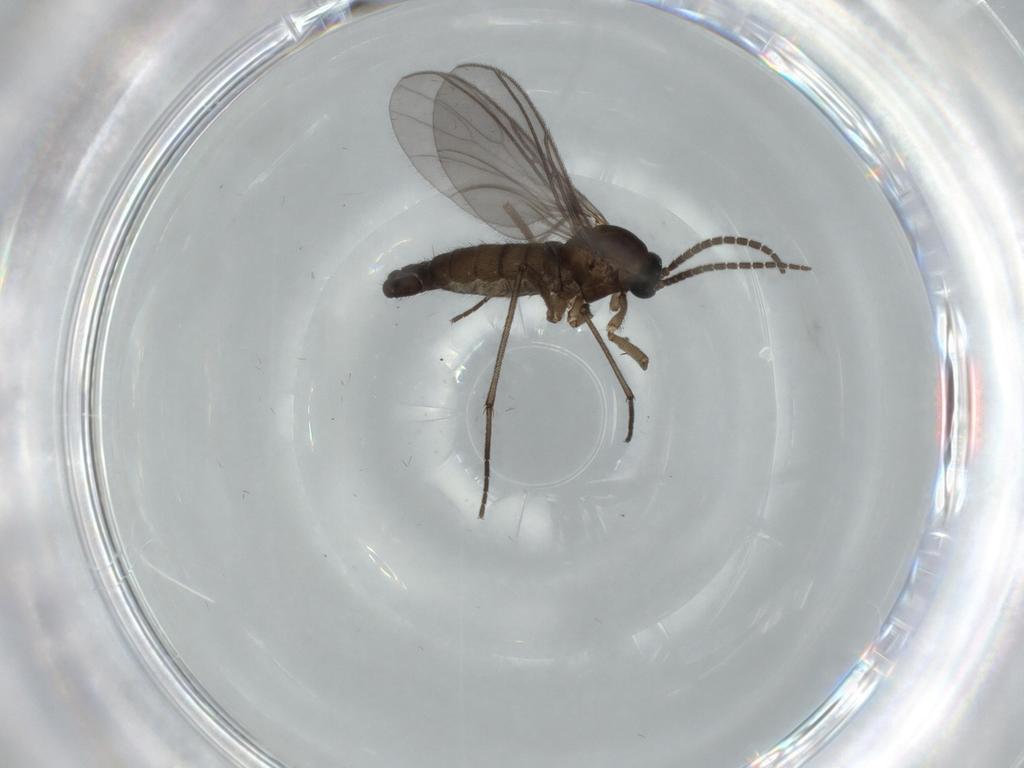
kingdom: Animalia
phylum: Arthropoda
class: Insecta
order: Diptera
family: Sciaridae
